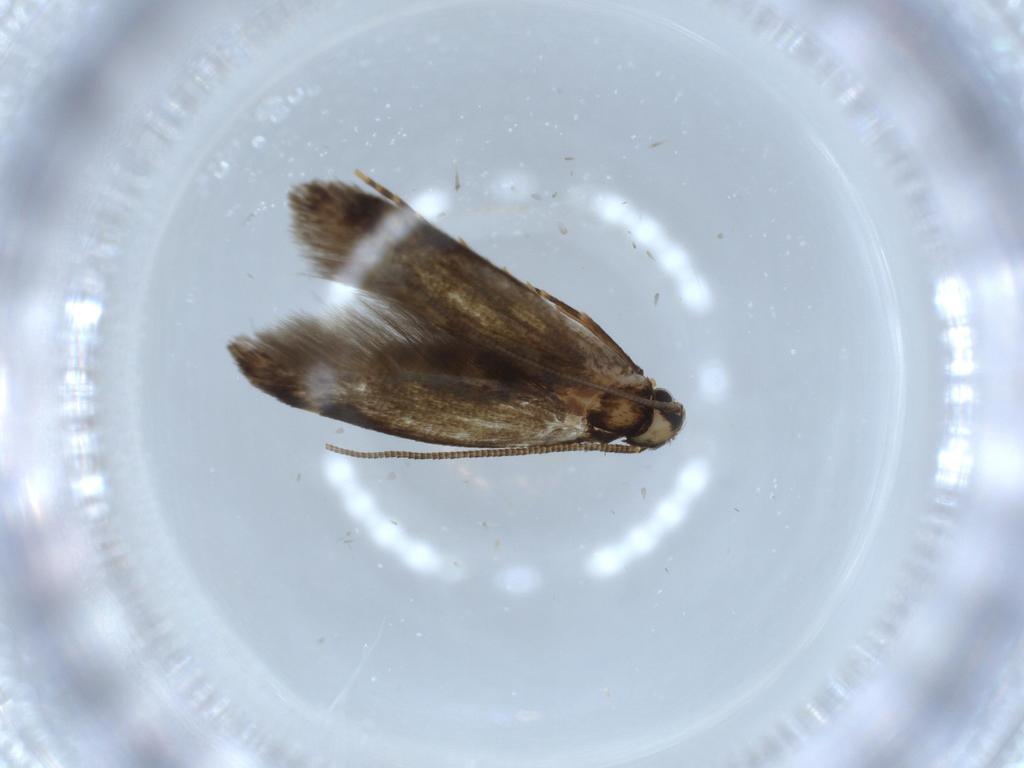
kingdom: Animalia
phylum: Arthropoda
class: Insecta
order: Lepidoptera
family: Tineidae
